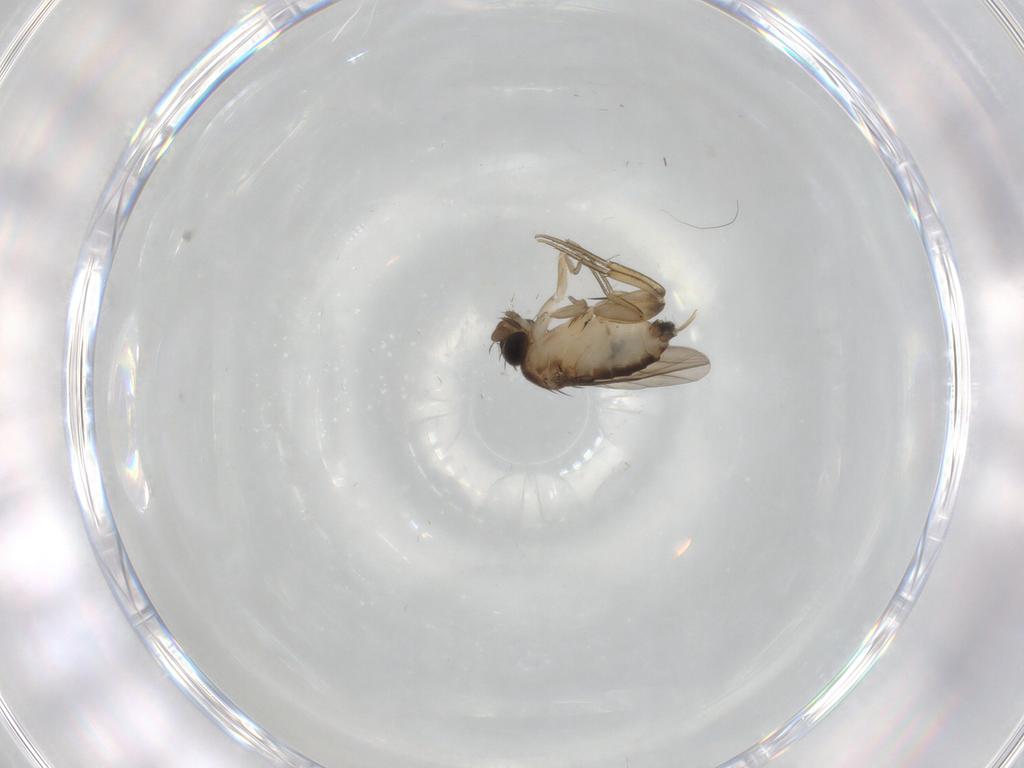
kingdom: Animalia
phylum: Arthropoda
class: Insecta
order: Diptera
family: Phoridae
